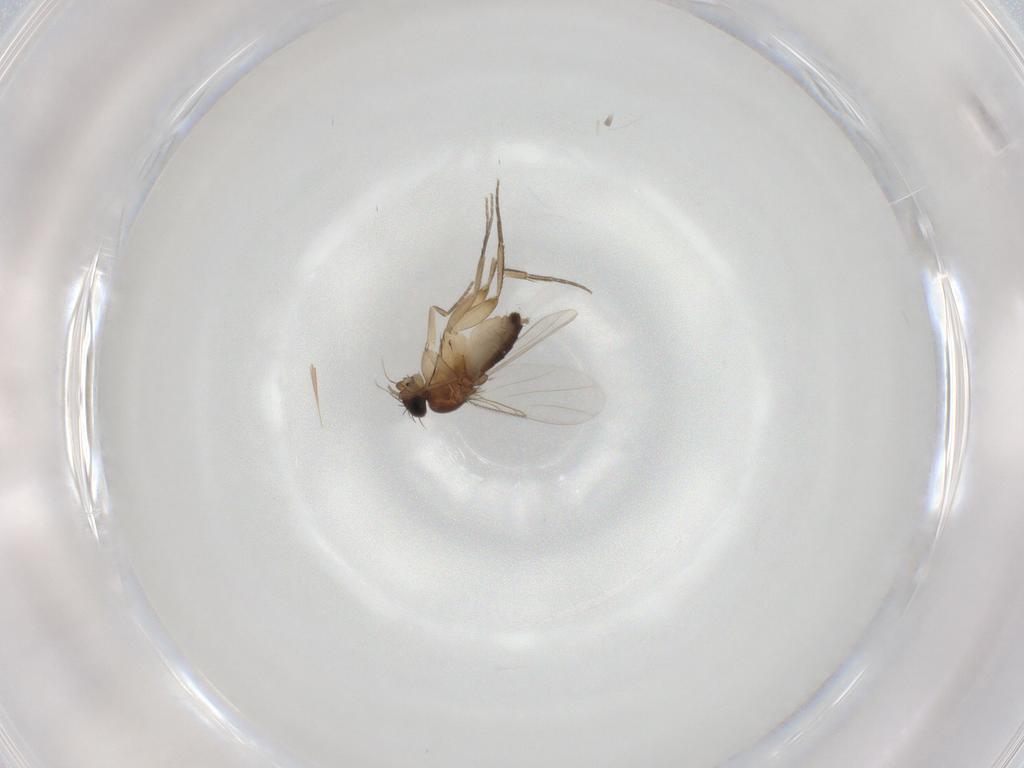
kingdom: Animalia
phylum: Arthropoda
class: Insecta
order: Diptera
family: Phoridae
